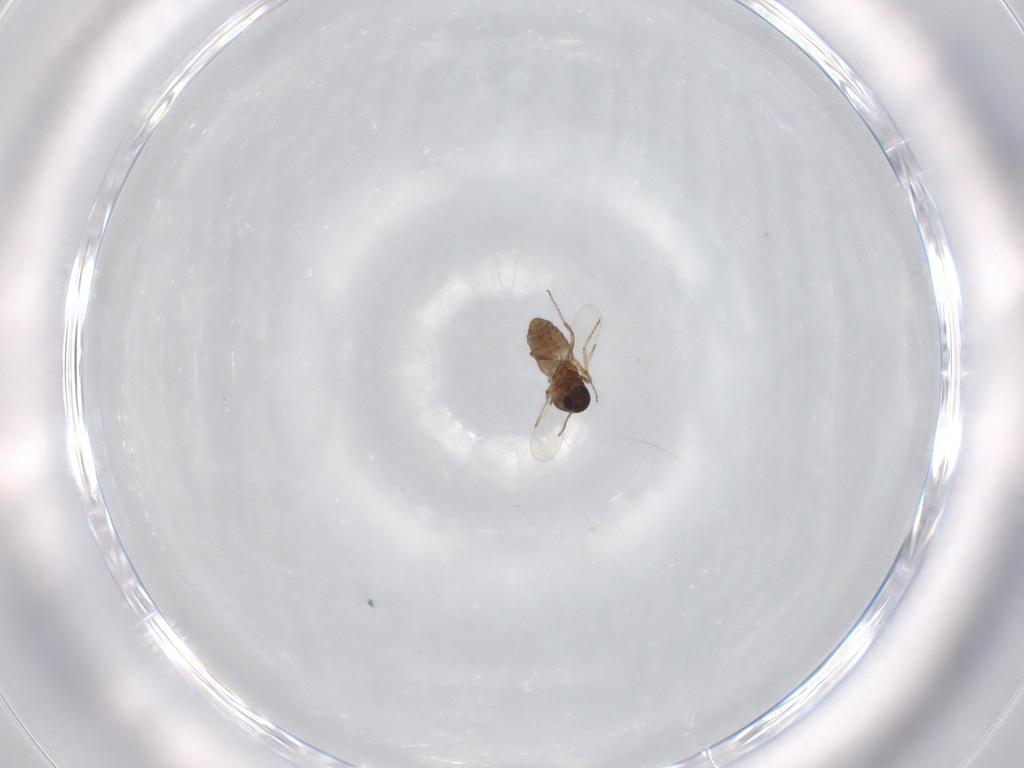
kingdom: Animalia
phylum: Arthropoda
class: Insecta
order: Diptera
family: Ceratopogonidae
